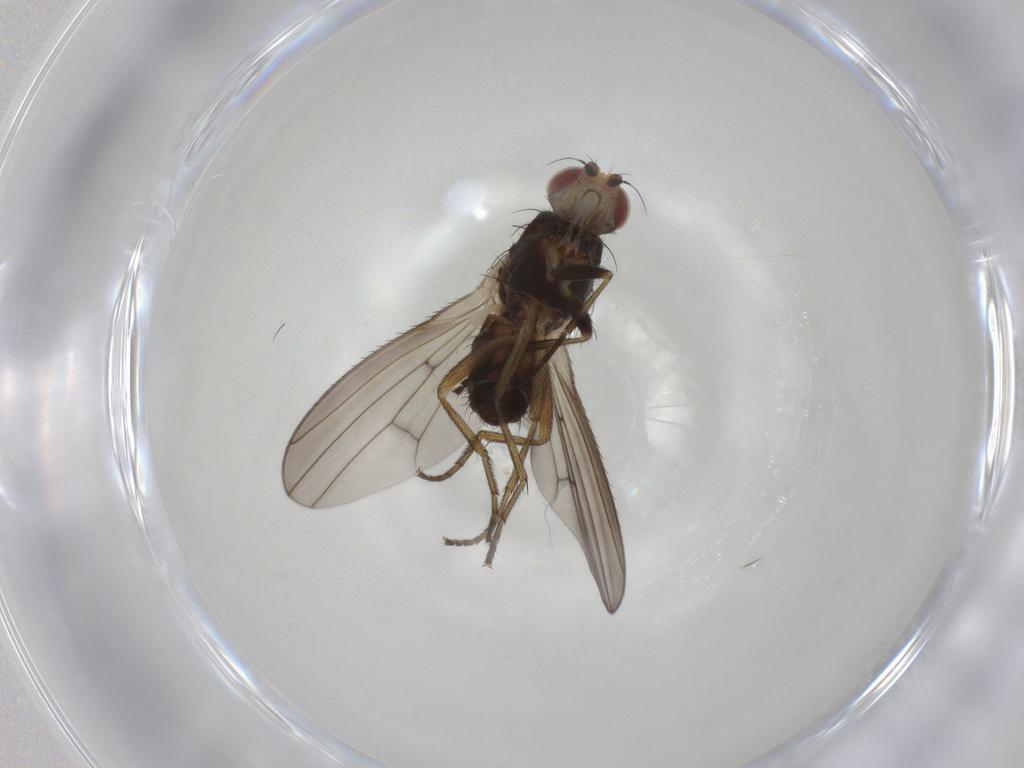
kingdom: Animalia
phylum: Arthropoda
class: Insecta
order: Diptera
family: Heleomyzidae
